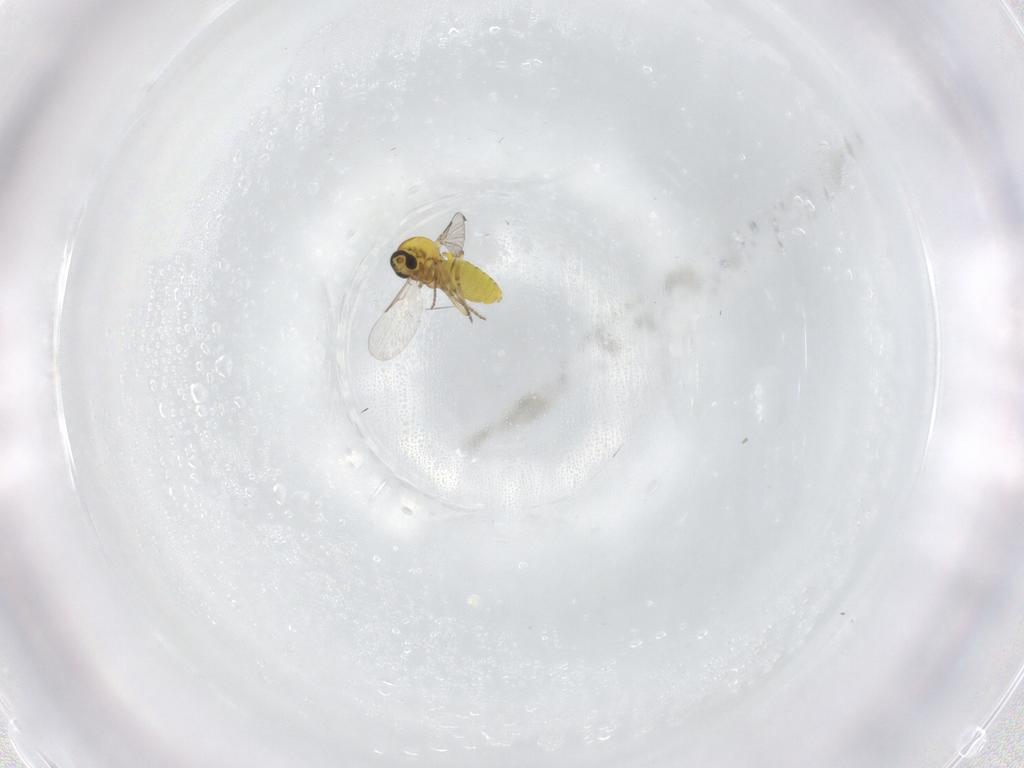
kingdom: Animalia
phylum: Arthropoda
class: Insecta
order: Diptera
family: Ceratopogonidae
